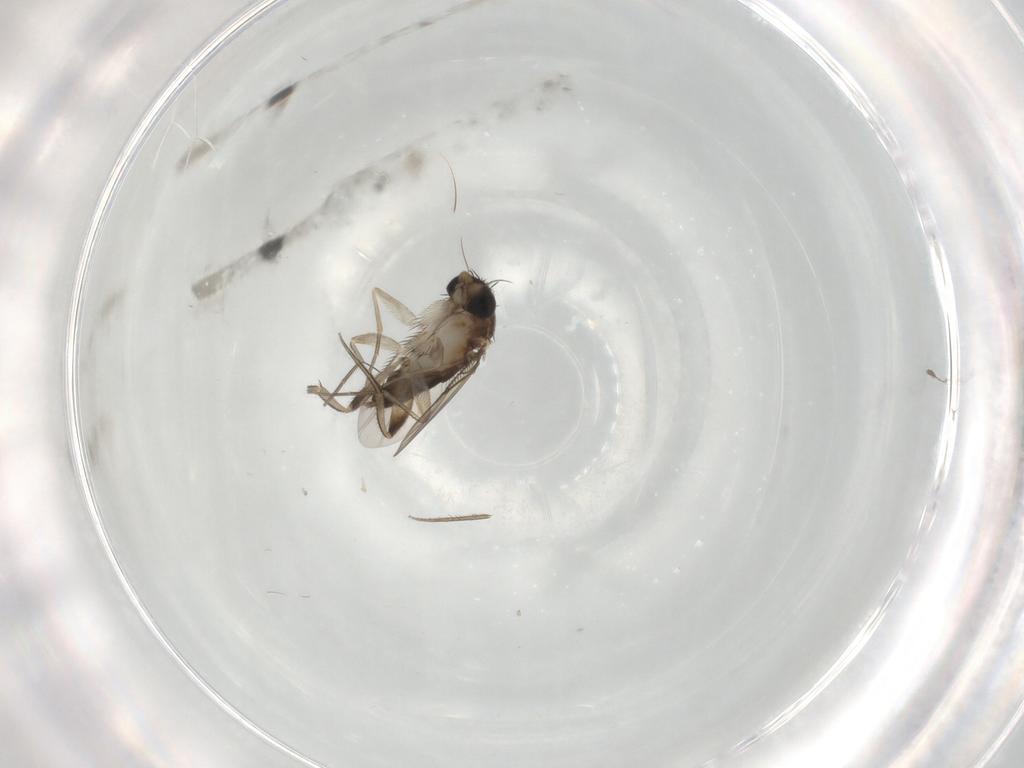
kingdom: Animalia
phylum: Arthropoda
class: Insecta
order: Diptera
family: Phoridae
